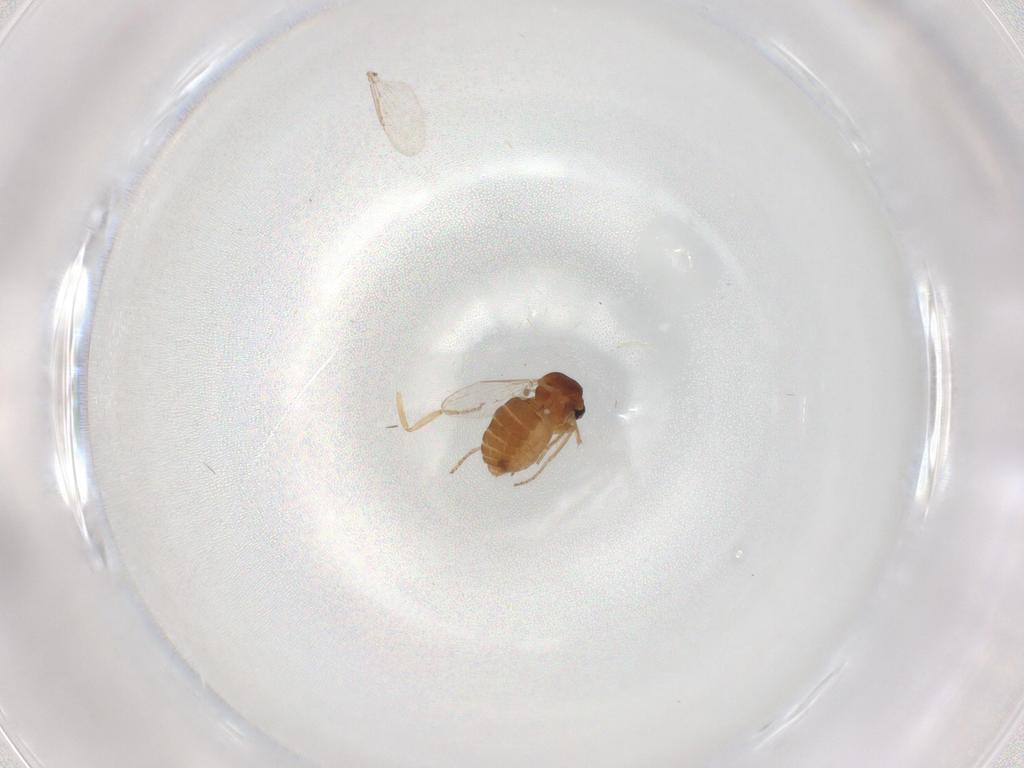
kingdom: Animalia
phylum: Arthropoda
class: Insecta
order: Diptera
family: Ceratopogonidae
